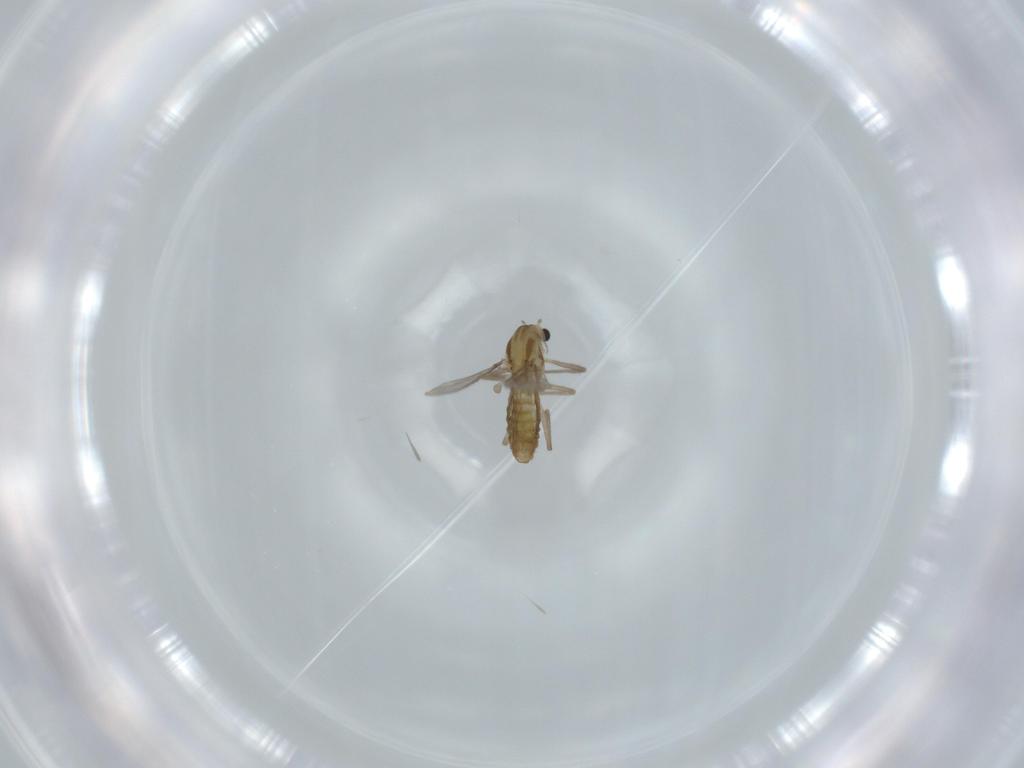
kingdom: Animalia
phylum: Arthropoda
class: Insecta
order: Diptera
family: Chironomidae
